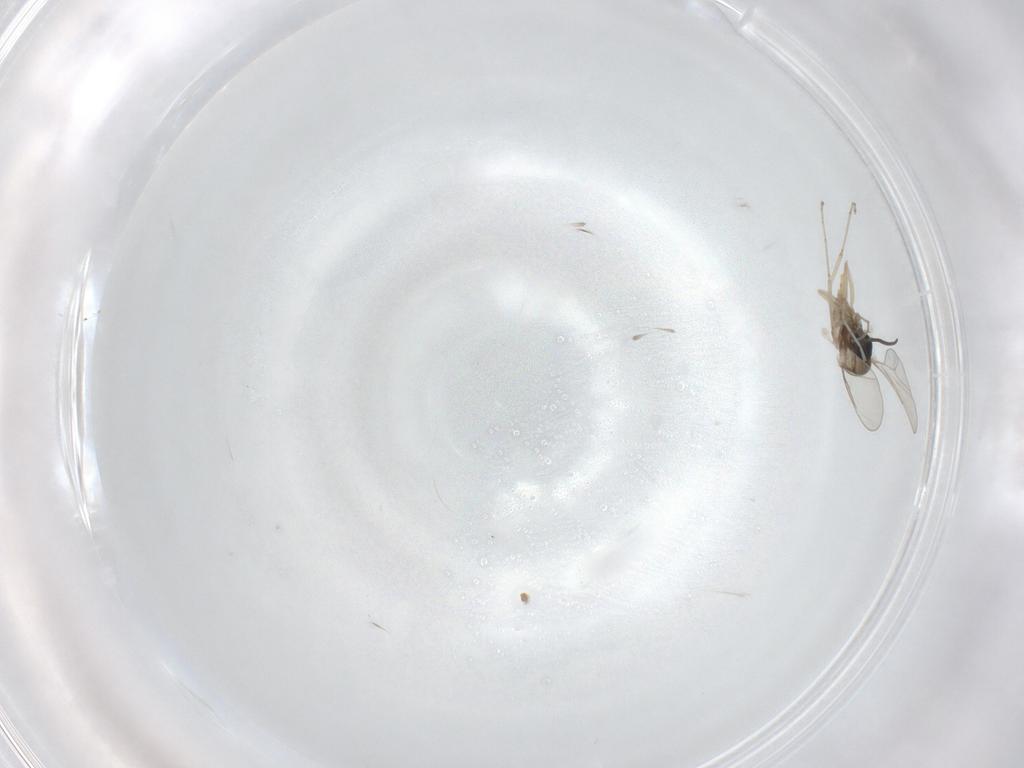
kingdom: Animalia
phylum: Arthropoda
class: Insecta
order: Diptera
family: Cecidomyiidae
